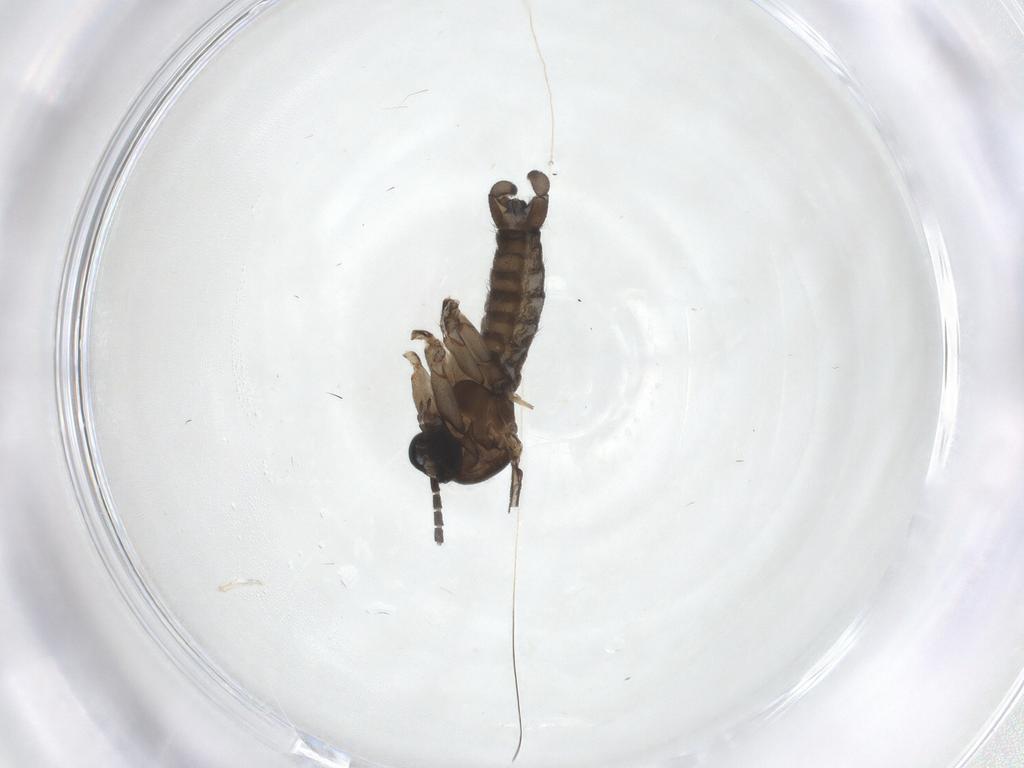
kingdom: Animalia
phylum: Arthropoda
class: Insecta
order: Diptera
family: Sciaridae
